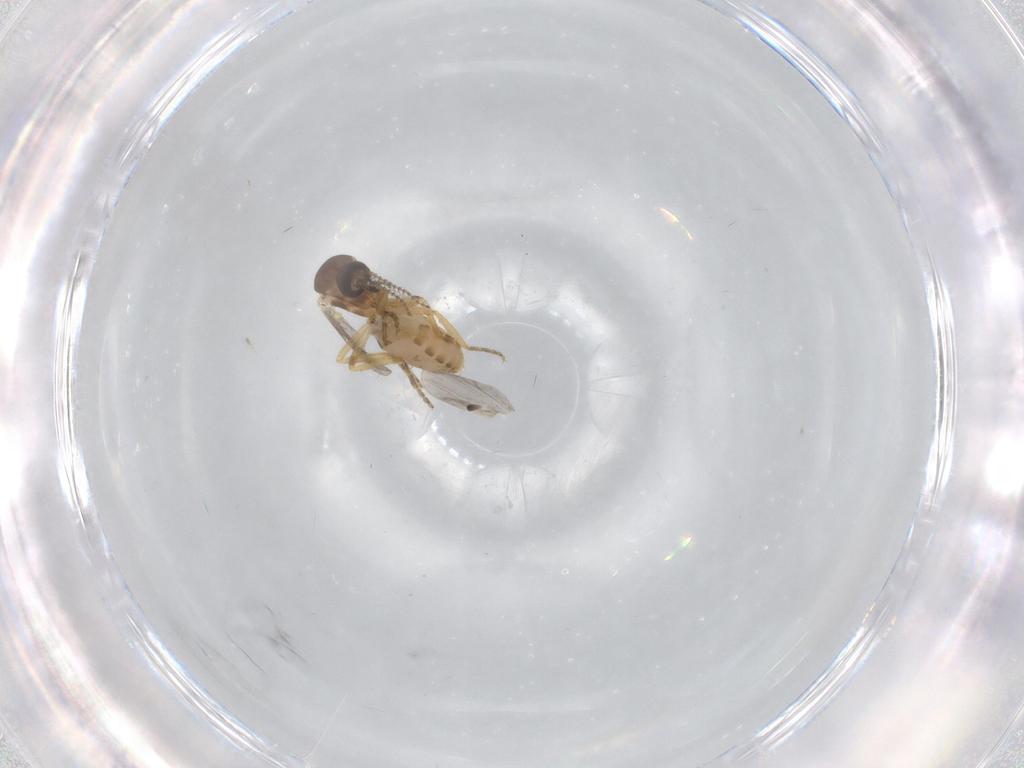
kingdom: Animalia
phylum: Arthropoda
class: Insecta
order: Diptera
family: Ceratopogonidae
